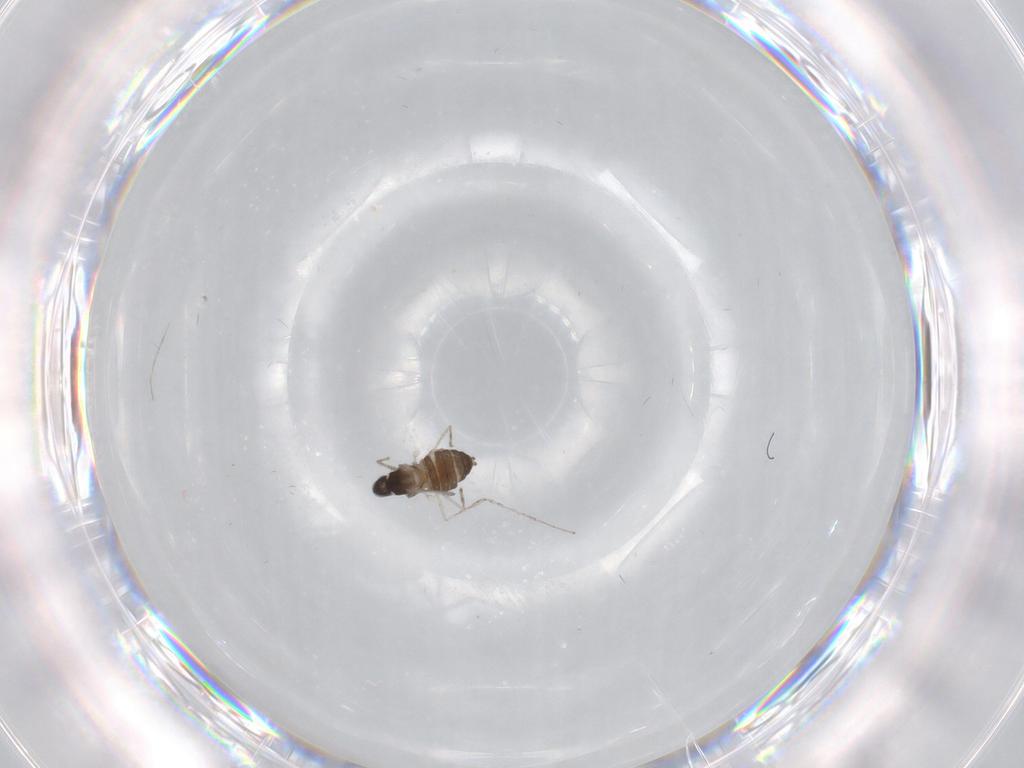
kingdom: Animalia
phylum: Arthropoda
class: Insecta
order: Diptera
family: Cecidomyiidae
